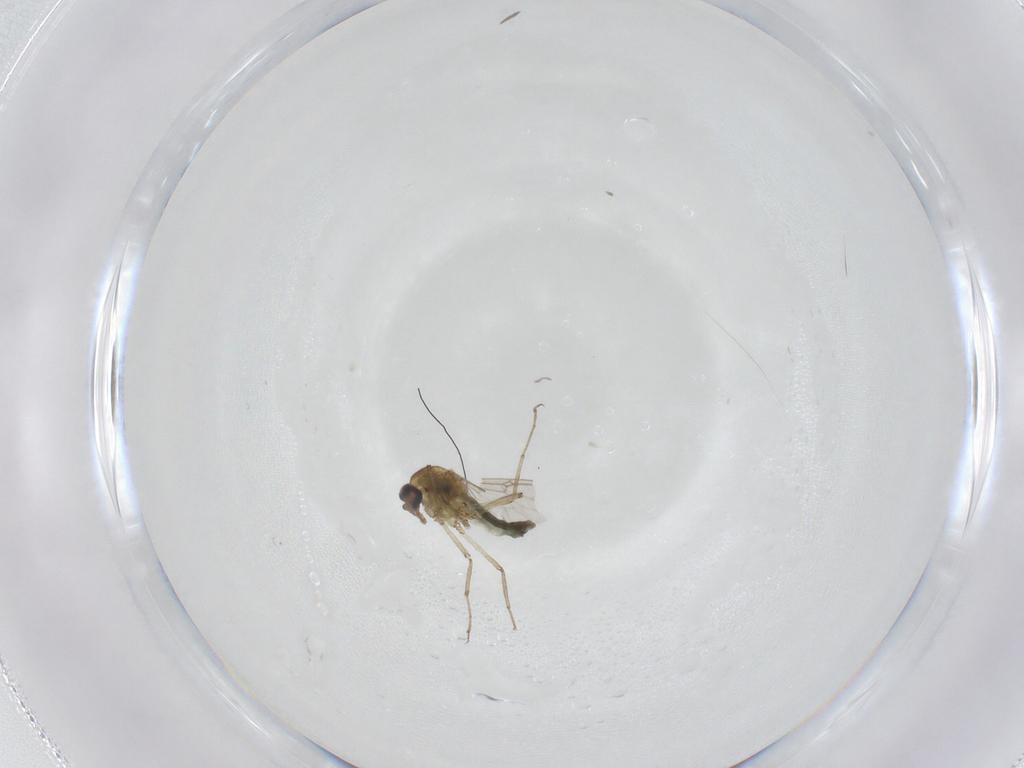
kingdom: Animalia
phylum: Arthropoda
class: Insecta
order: Diptera
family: Ceratopogonidae
